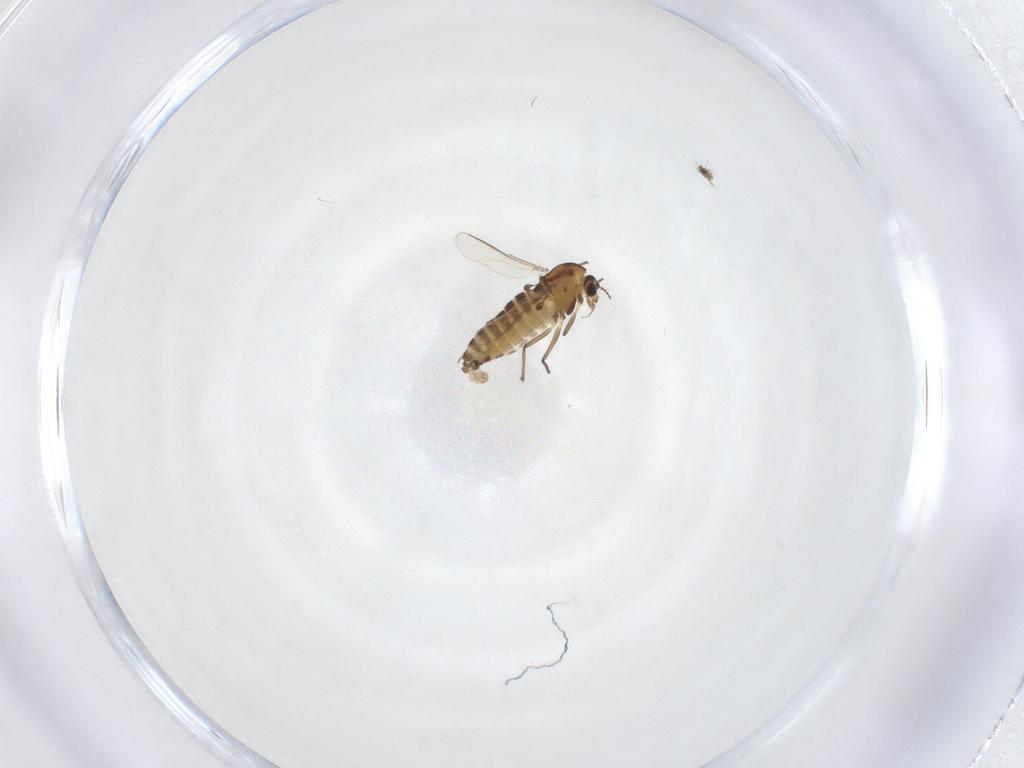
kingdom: Animalia
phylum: Arthropoda
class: Insecta
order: Diptera
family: Chironomidae
